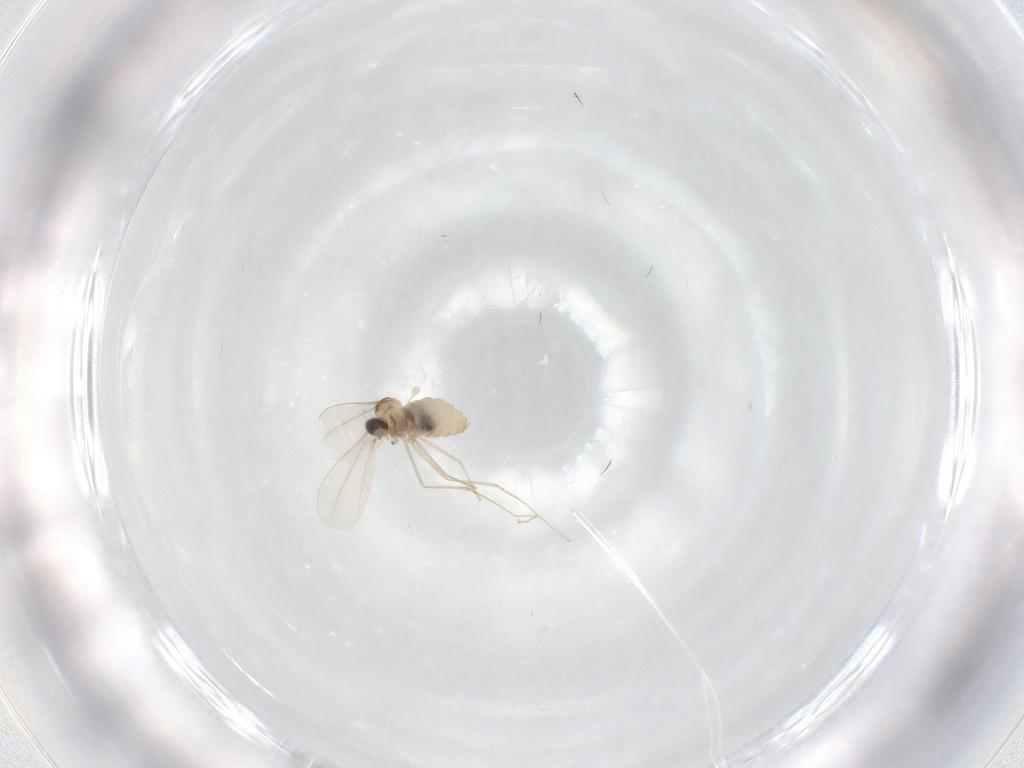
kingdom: Animalia
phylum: Arthropoda
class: Insecta
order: Diptera
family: Cecidomyiidae
